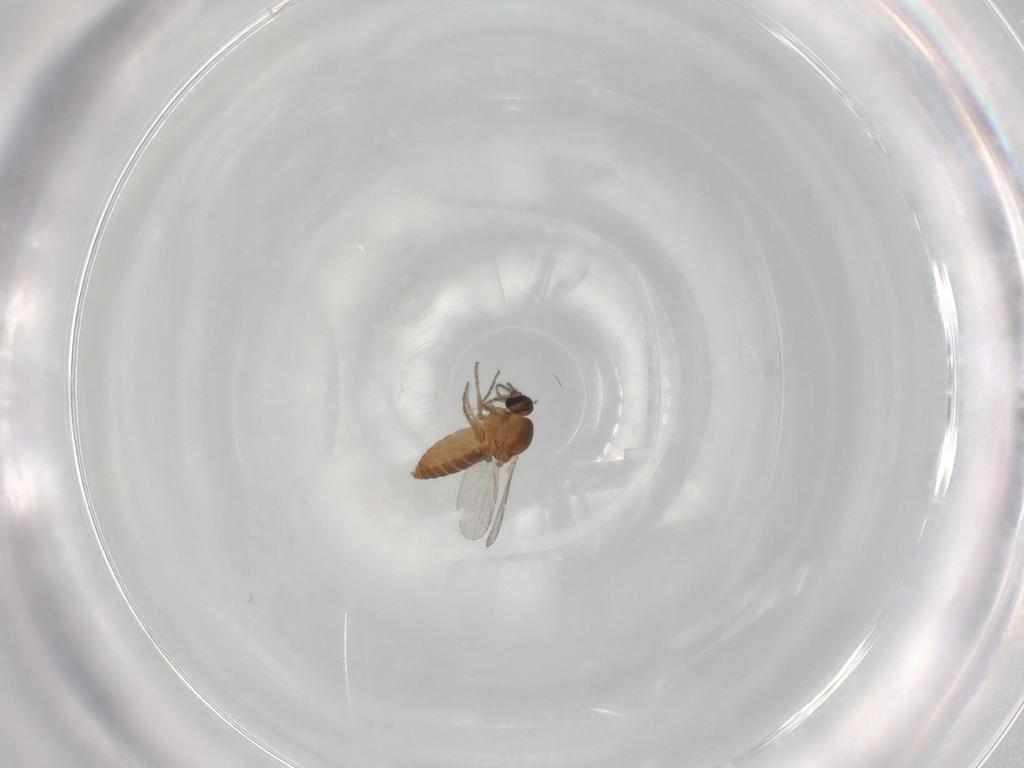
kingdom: Animalia
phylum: Arthropoda
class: Insecta
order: Diptera
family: Ceratopogonidae
